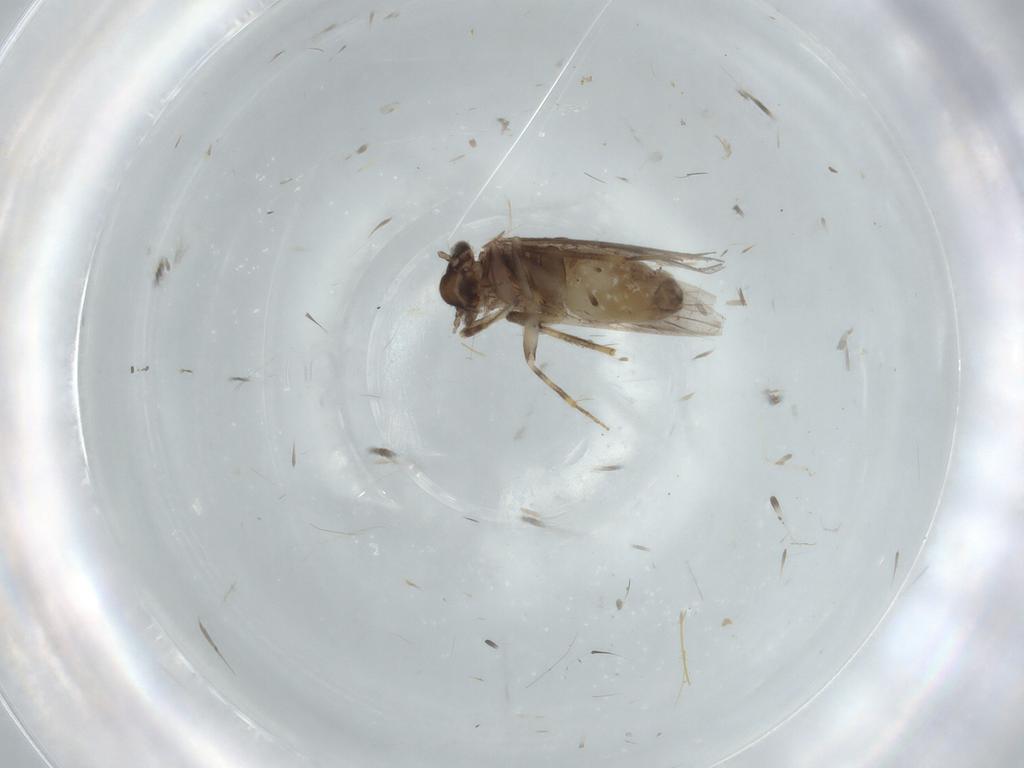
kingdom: Animalia
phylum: Arthropoda
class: Insecta
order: Psocodea
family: Lepidopsocidae
